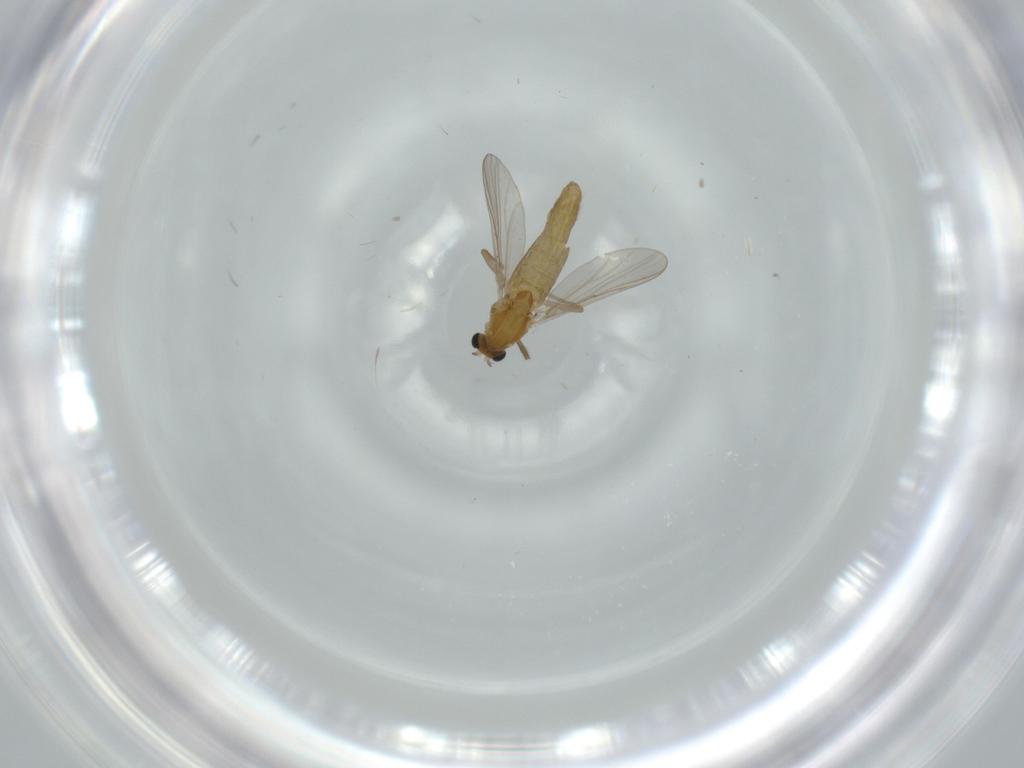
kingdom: Animalia
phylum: Arthropoda
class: Insecta
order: Diptera
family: Chironomidae
